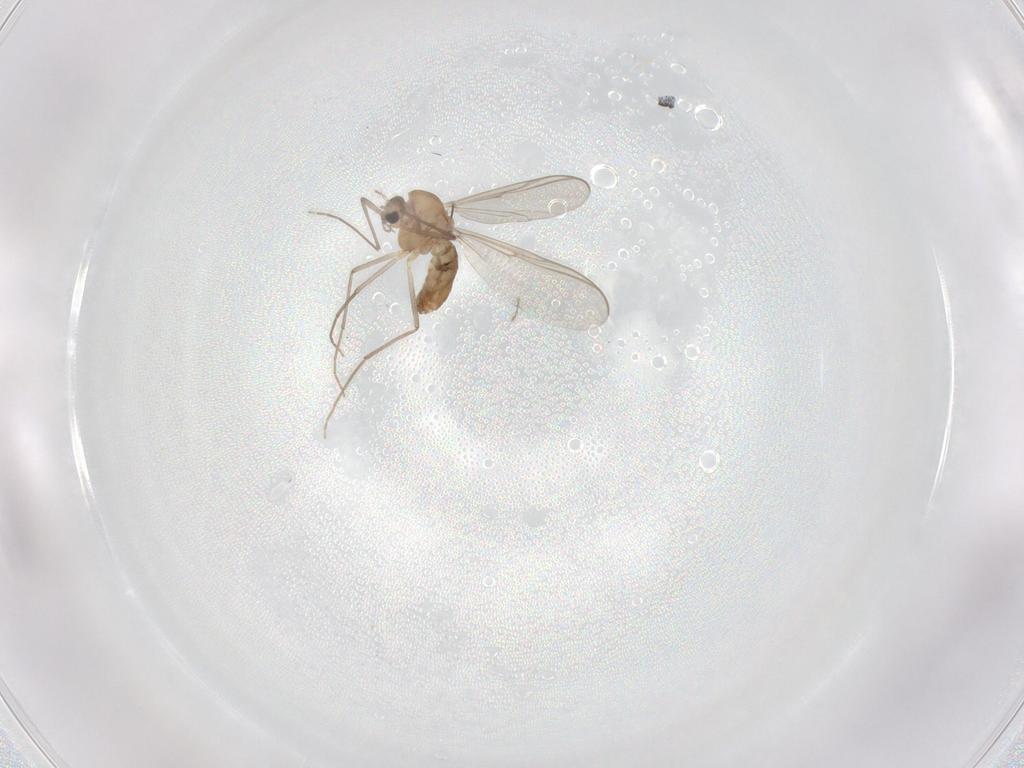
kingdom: Animalia
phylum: Arthropoda
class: Insecta
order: Diptera
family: Chironomidae
